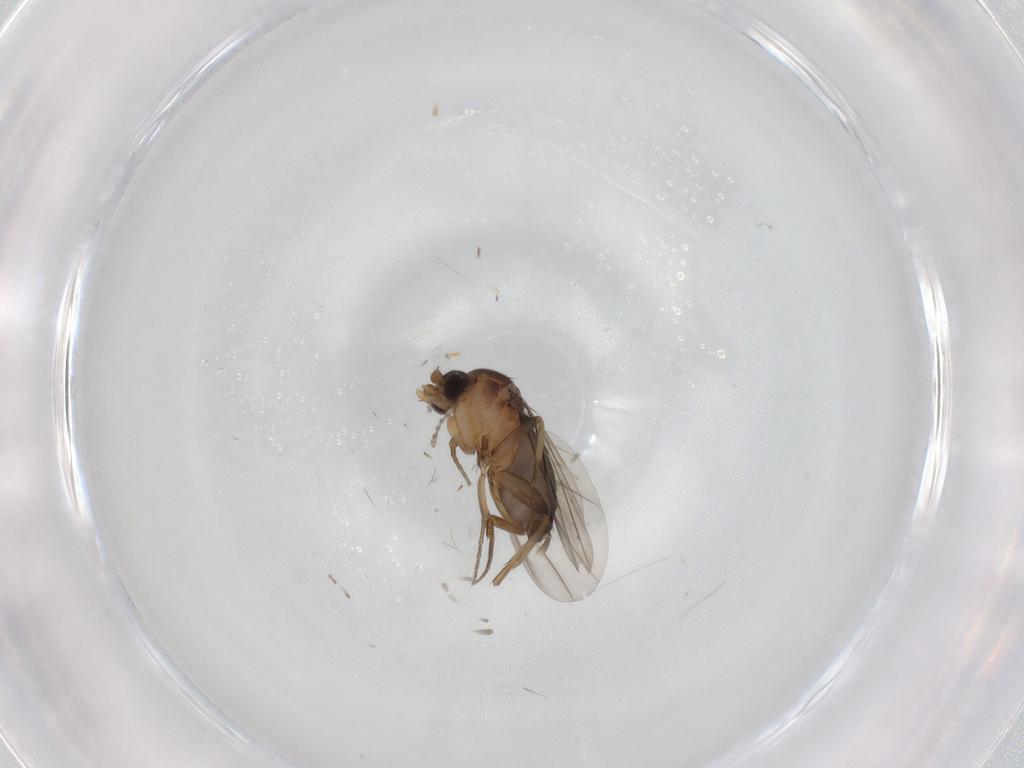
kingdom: Animalia
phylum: Arthropoda
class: Insecta
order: Diptera
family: Phoridae
